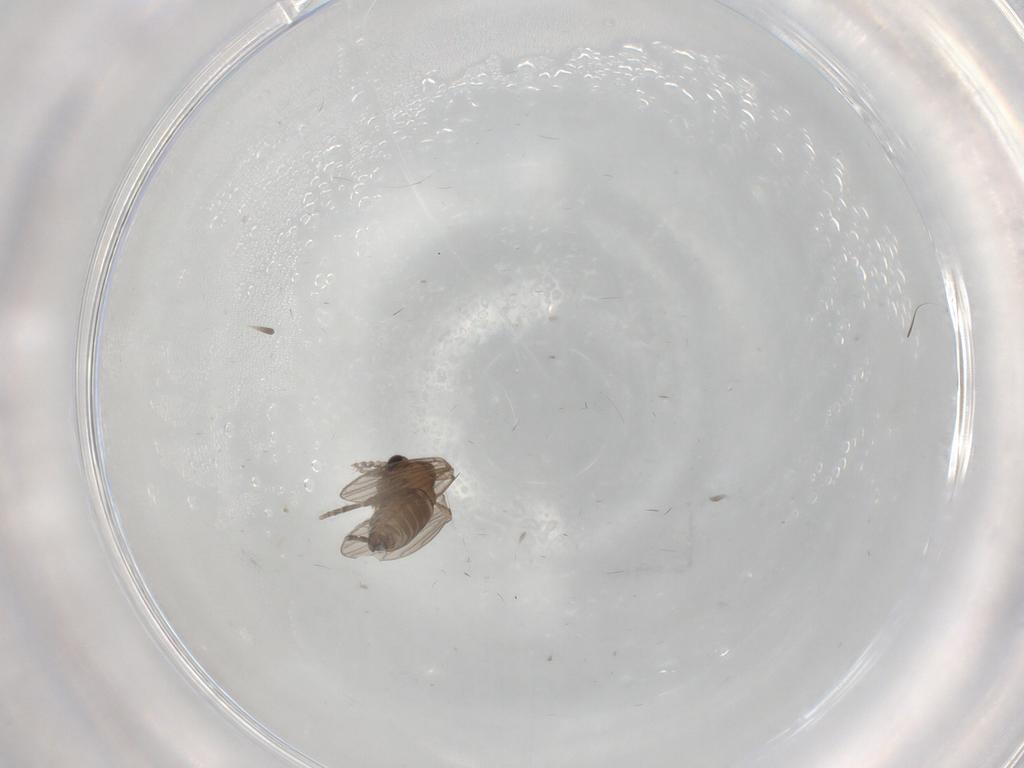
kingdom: Animalia
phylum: Arthropoda
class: Insecta
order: Diptera
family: Psychodidae
